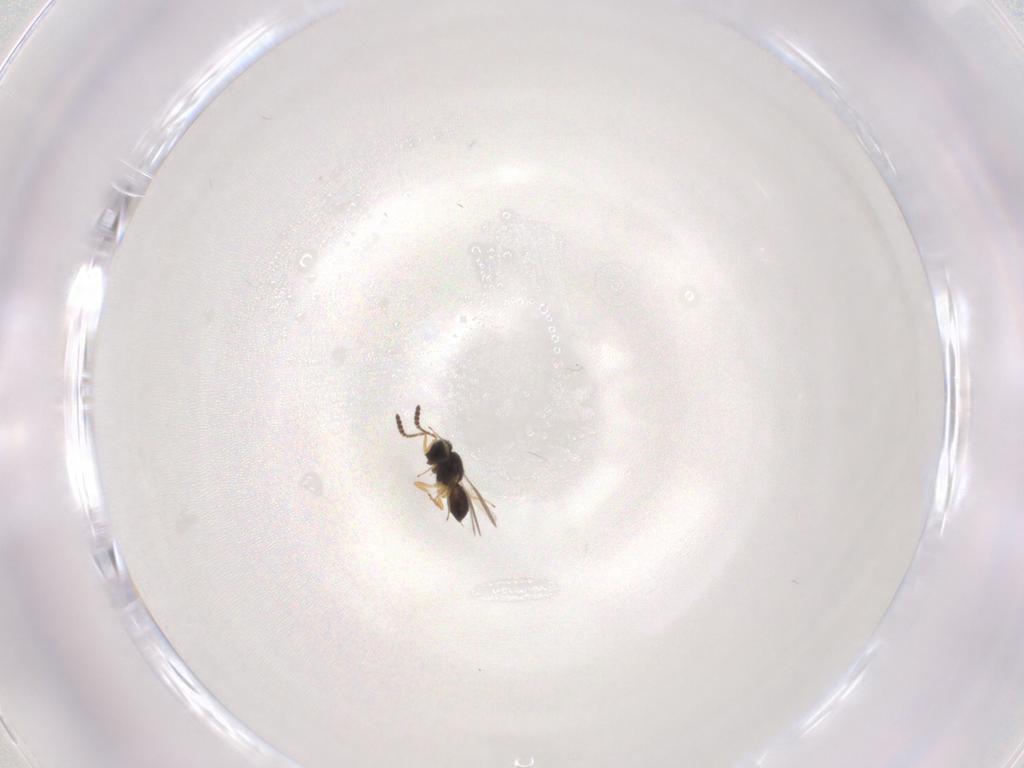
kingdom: Animalia
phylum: Arthropoda
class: Insecta
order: Hymenoptera
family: Scelionidae
